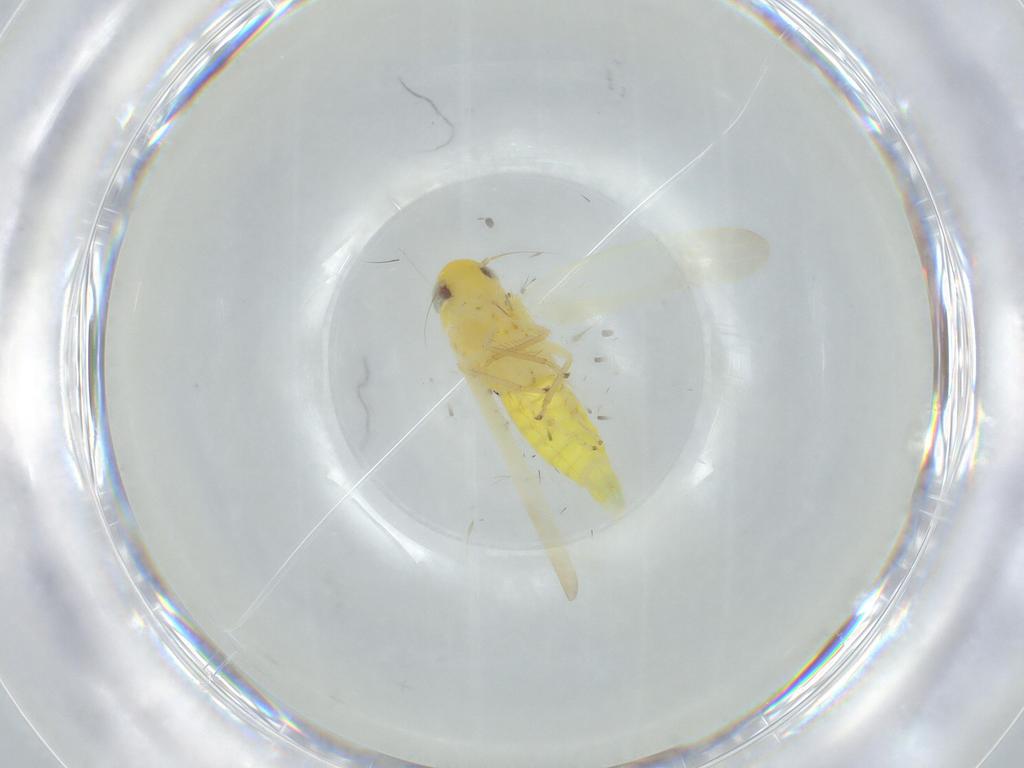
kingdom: Animalia
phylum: Arthropoda
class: Insecta
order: Hemiptera
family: Cicadellidae
